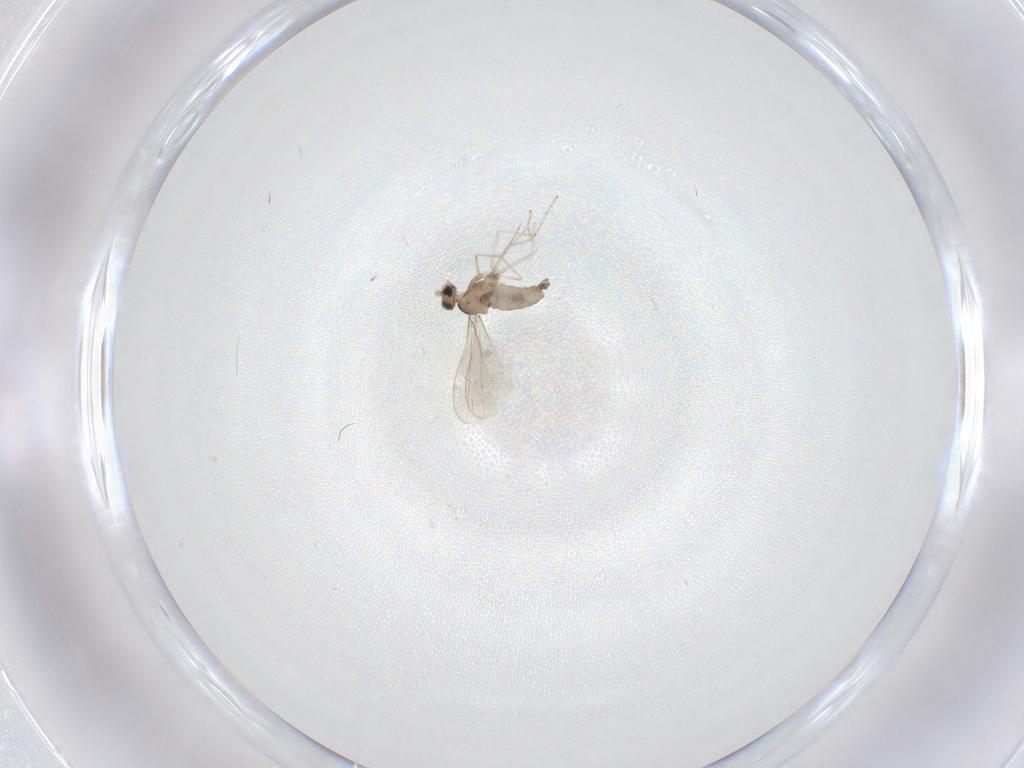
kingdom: Animalia
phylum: Arthropoda
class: Insecta
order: Diptera
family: Cecidomyiidae
